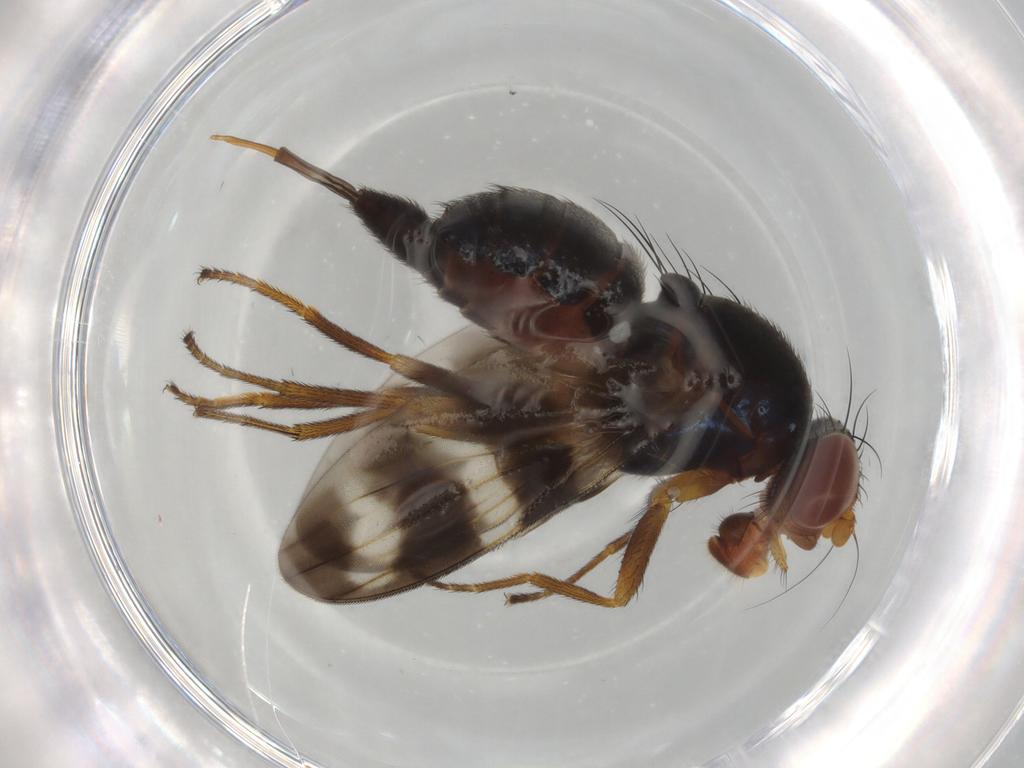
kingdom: Animalia
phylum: Arthropoda
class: Insecta
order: Diptera
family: Ulidiidae
